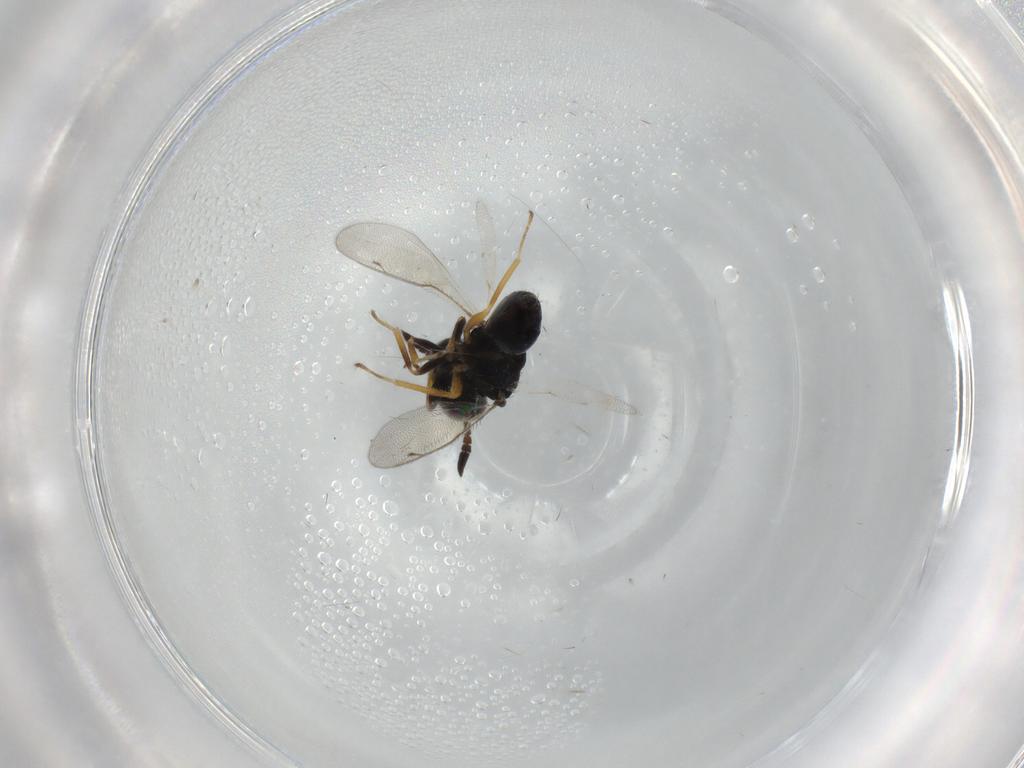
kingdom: Animalia
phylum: Arthropoda
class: Insecta
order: Hymenoptera
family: Pteromalidae
